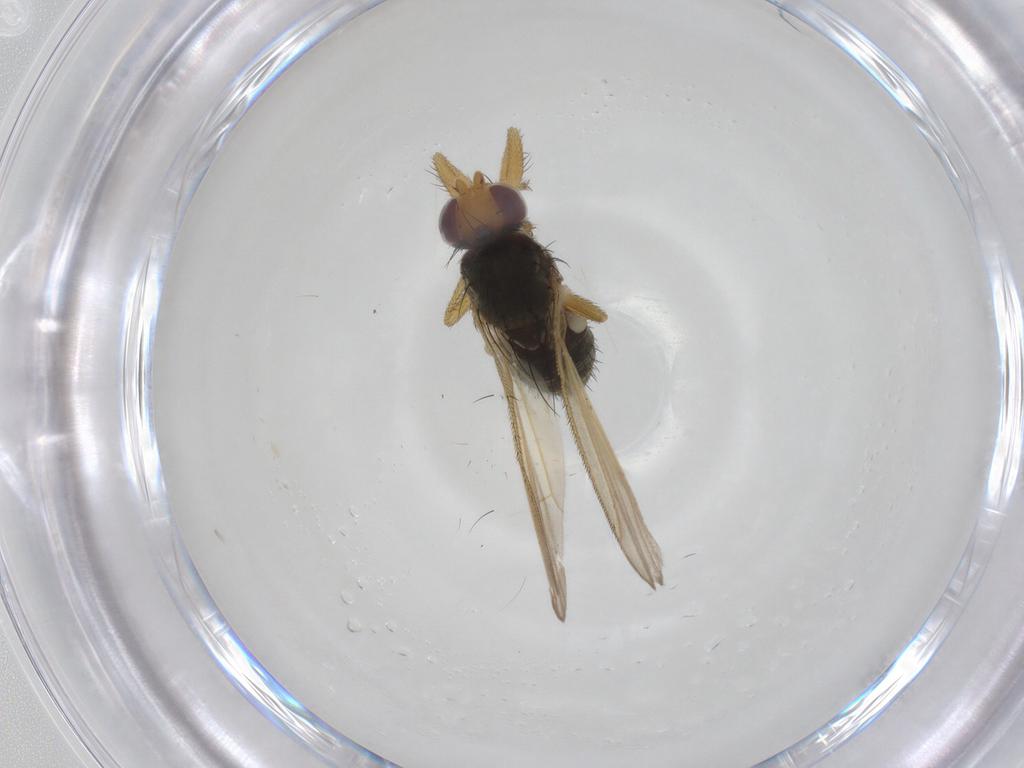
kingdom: Animalia
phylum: Arthropoda
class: Insecta
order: Diptera
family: Heleomyzidae
